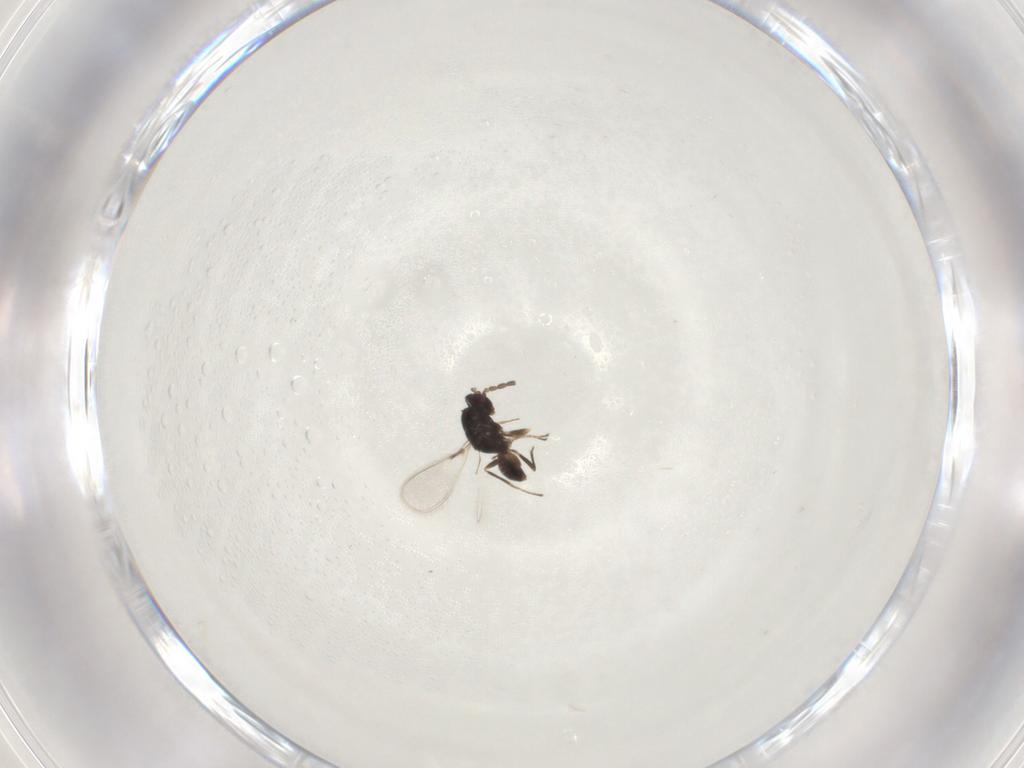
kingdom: Animalia
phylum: Arthropoda
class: Insecta
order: Hymenoptera
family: Mymaridae
